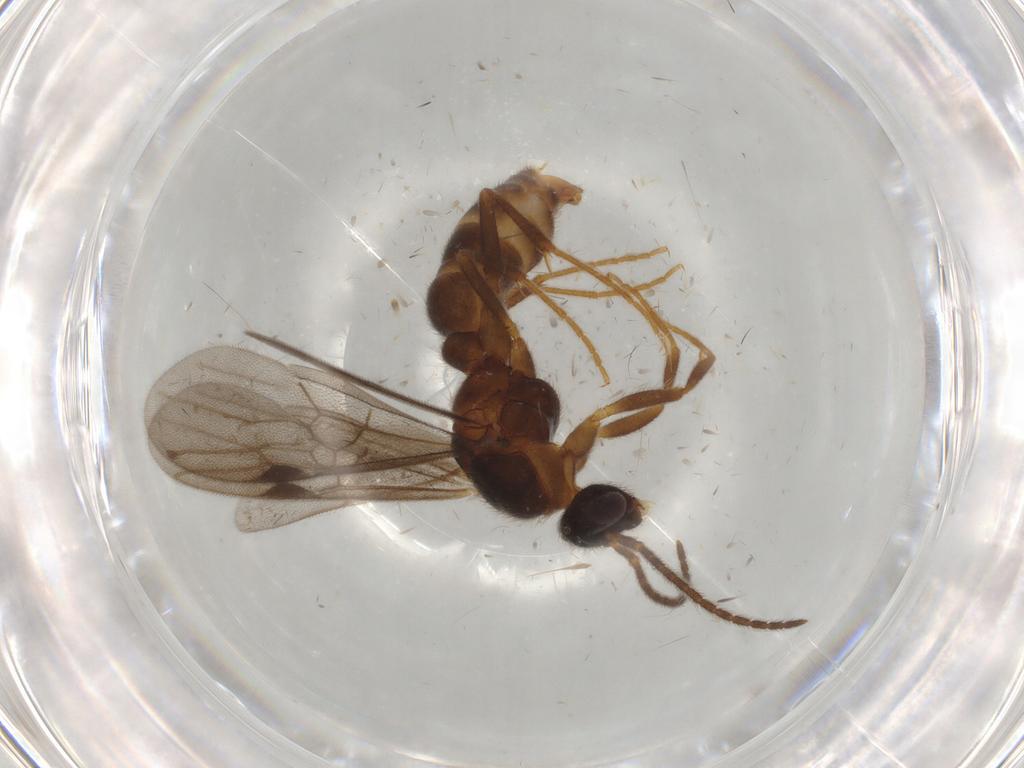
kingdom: Animalia
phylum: Arthropoda
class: Insecta
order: Hymenoptera
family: Formicidae
